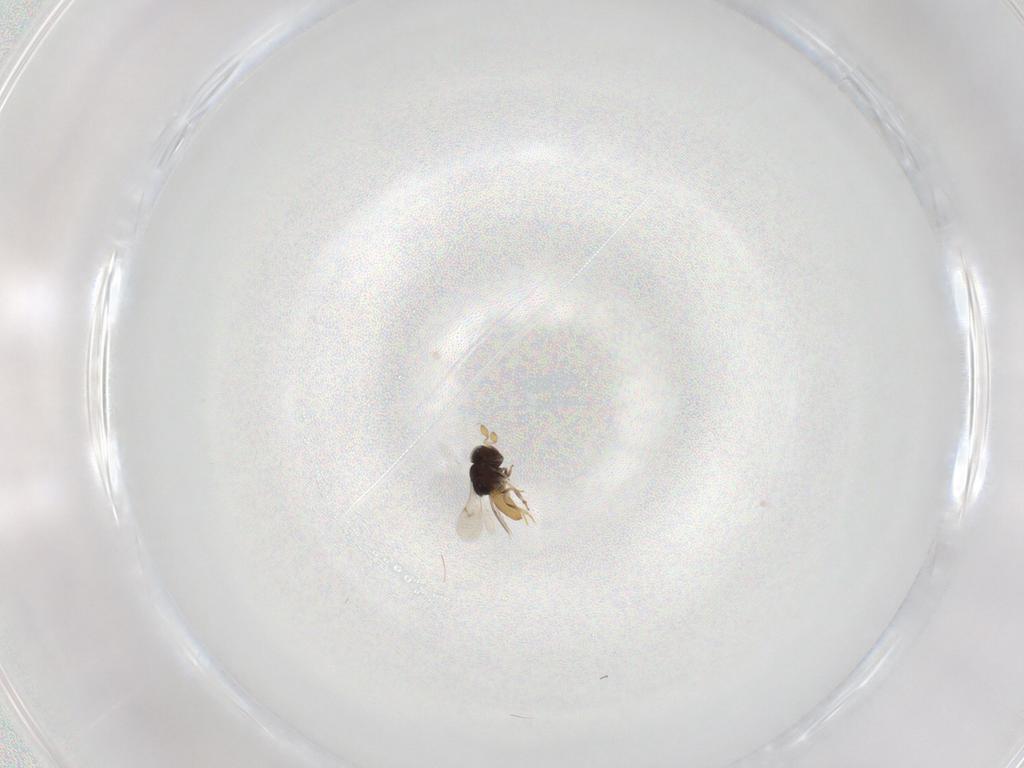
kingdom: Animalia
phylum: Arthropoda
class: Insecta
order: Hymenoptera
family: Scelionidae
